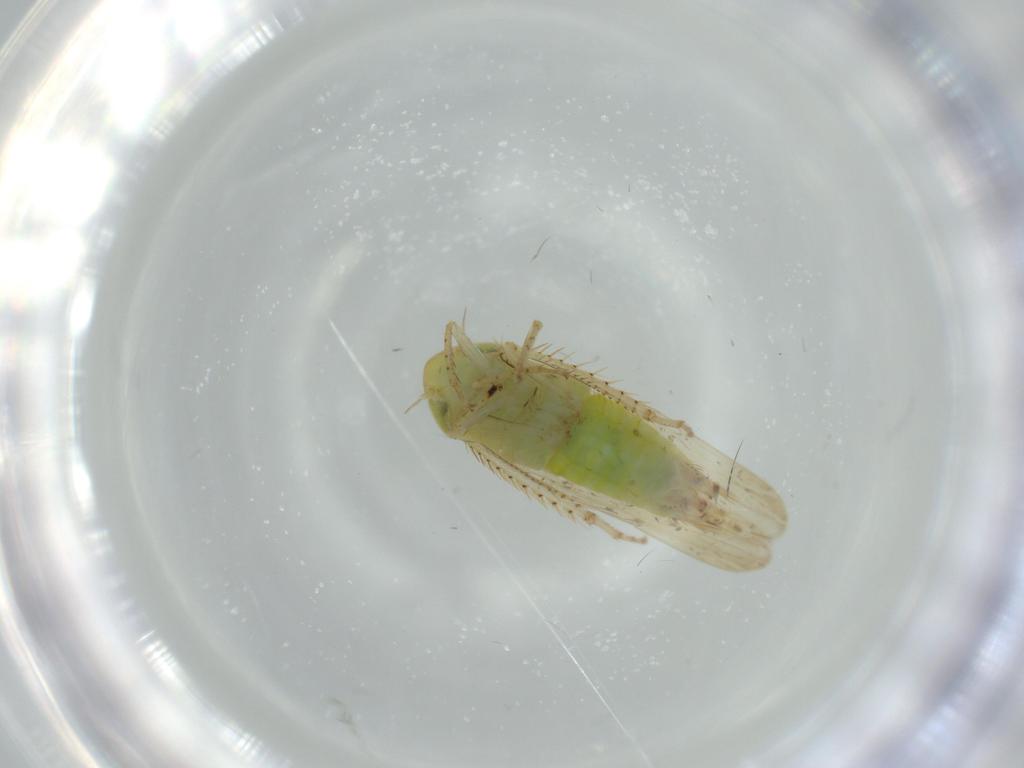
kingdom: Animalia
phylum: Arthropoda
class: Insecta
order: Hemiptera
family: Cicadellidae
